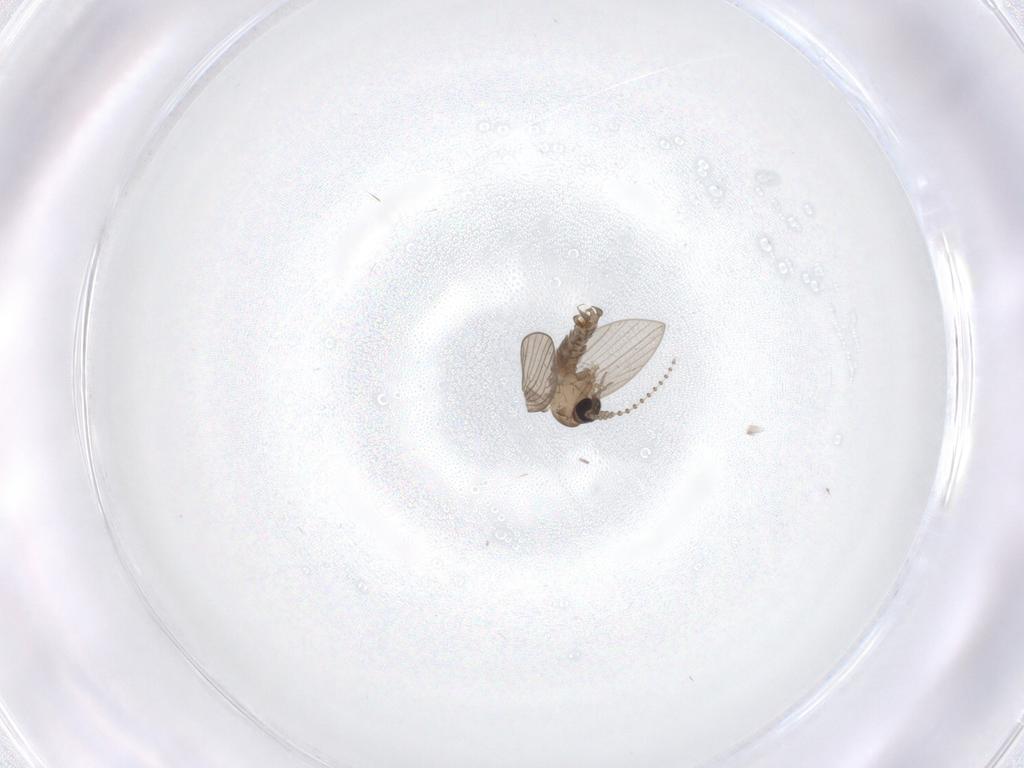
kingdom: Animalia
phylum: Arthropoda
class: Insecta
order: Diptera
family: Psychodidae
